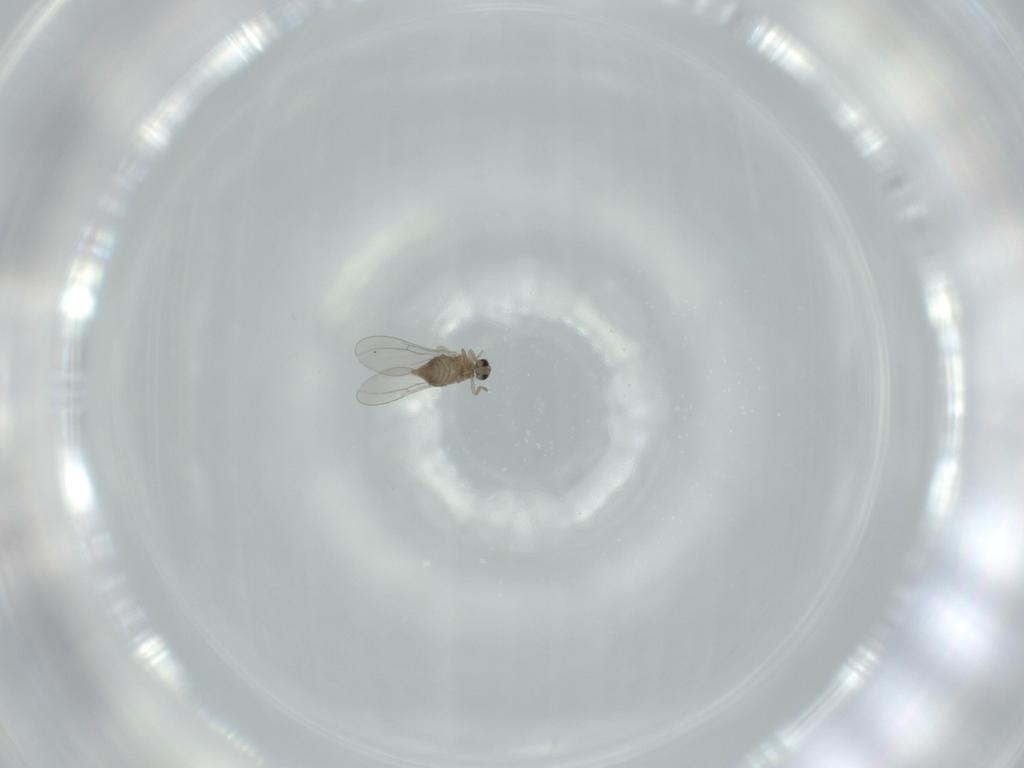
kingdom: Animalia
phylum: Arthropoda
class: Insecta
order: Diptera
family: Cecidomyiidae
